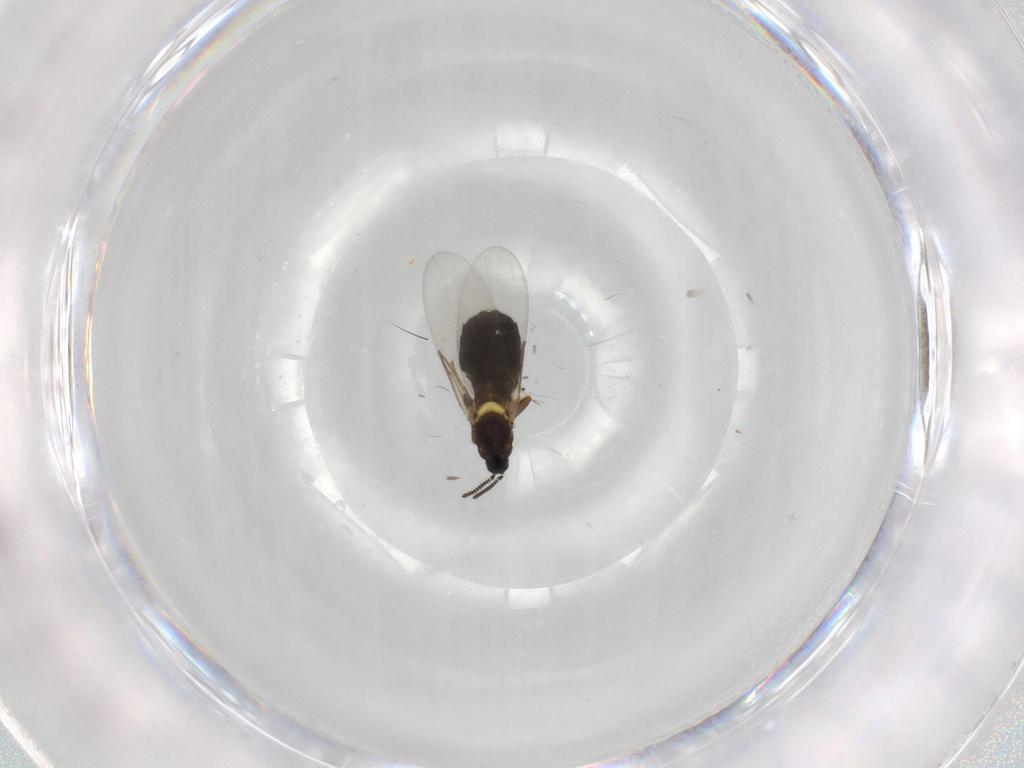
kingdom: Animalia
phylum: Arthropoda
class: Insecta
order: Diptera
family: Scatopsidae
